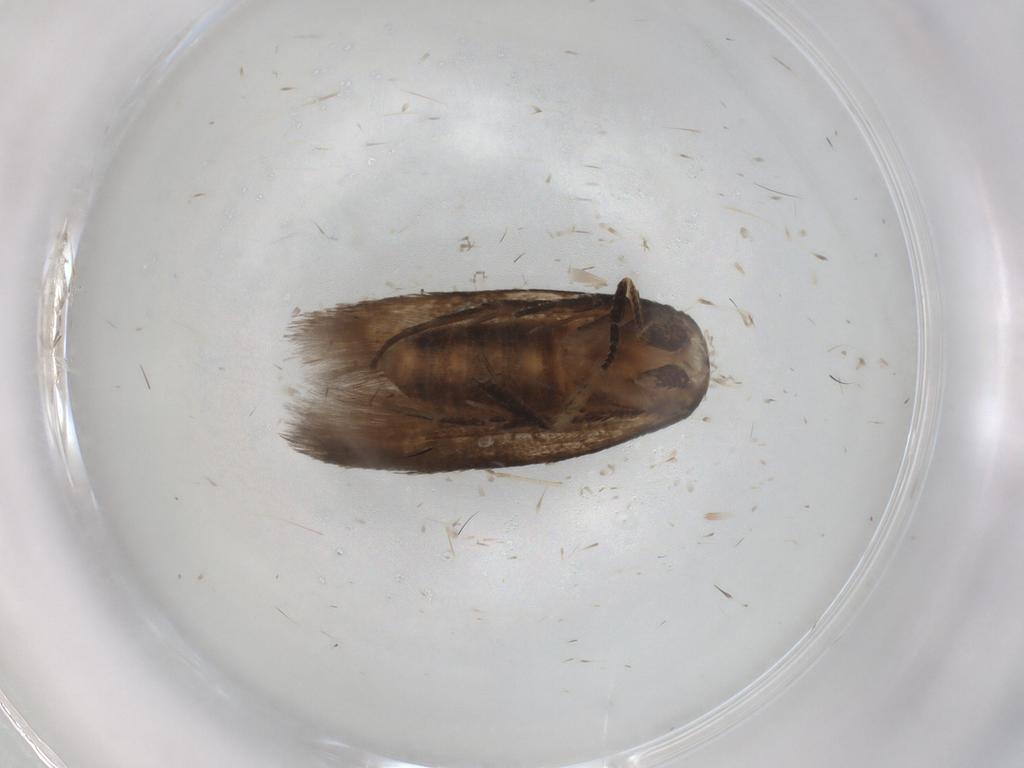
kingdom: Animalia
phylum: Arthropoda
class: Insecta
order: Lepidoptera
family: Cosmopterigidae
